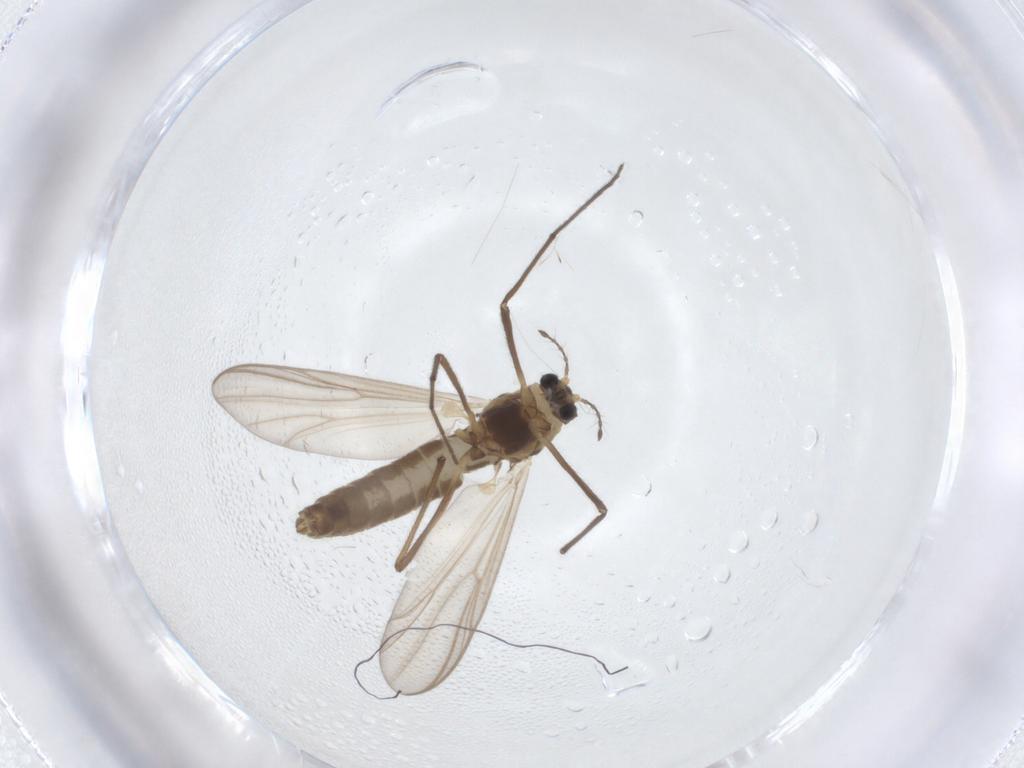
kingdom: Animalia
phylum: Arthropoda
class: Insecta
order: Diptera
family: Chironomidae
